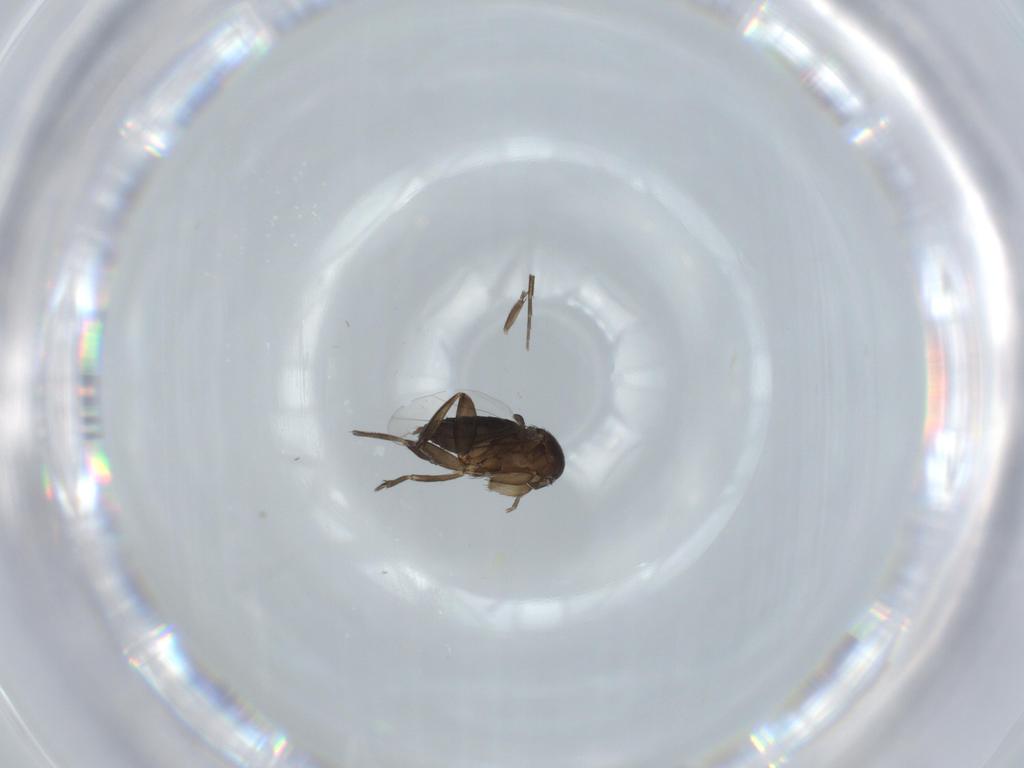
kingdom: Animalia
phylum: Arthropoda
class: Insecta
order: Diptera
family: Phoridae
